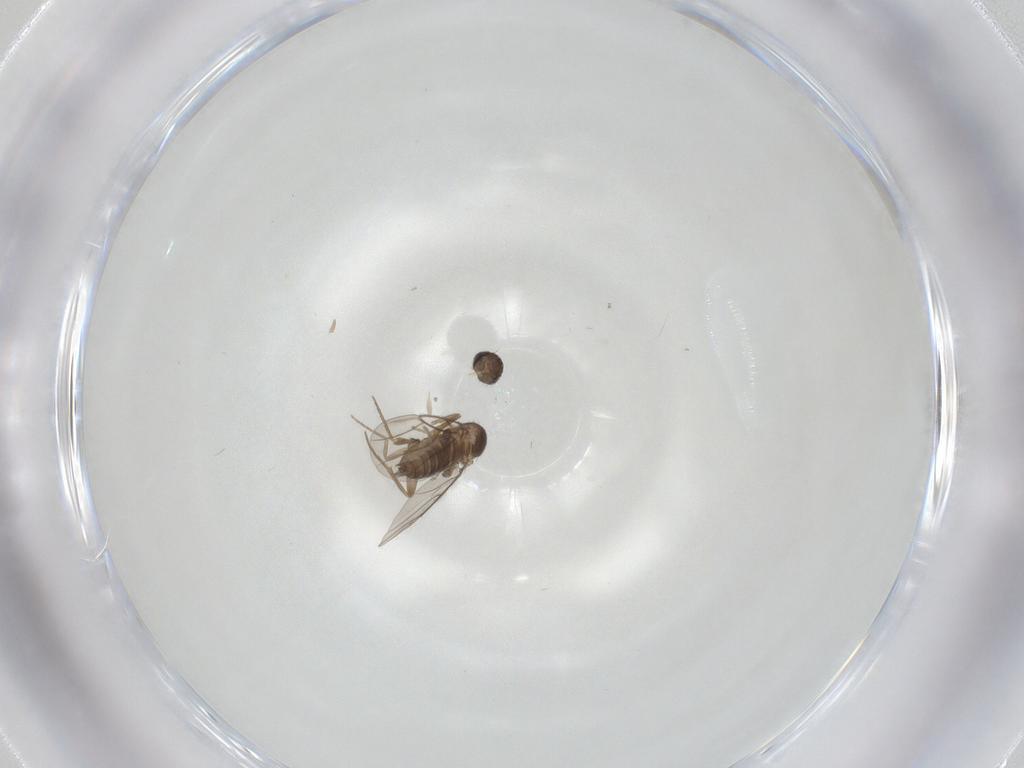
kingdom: Animalia
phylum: Arthropoda
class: Insecta
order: Diptera
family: Phoridae
